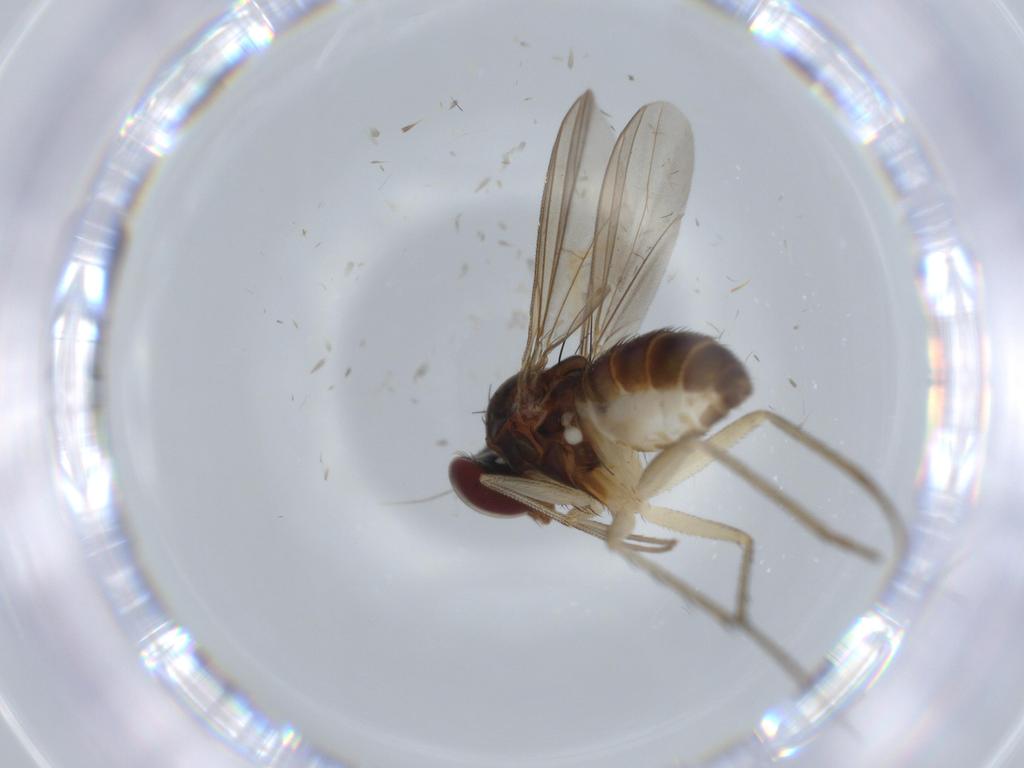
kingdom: Animalia
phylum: Arthropoda
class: Insecta
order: Diptera
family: Dolichopodidae
